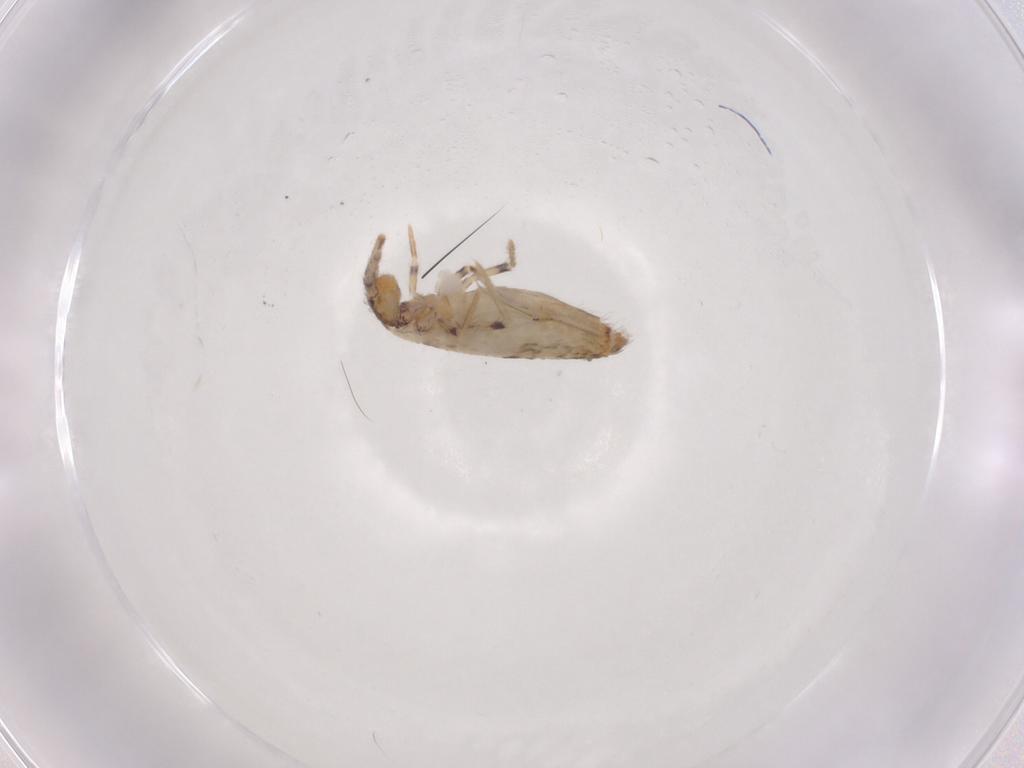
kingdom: Animalia
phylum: Arthropoda
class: Collembola
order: Entomobryomorpha
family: Entomobryidae
